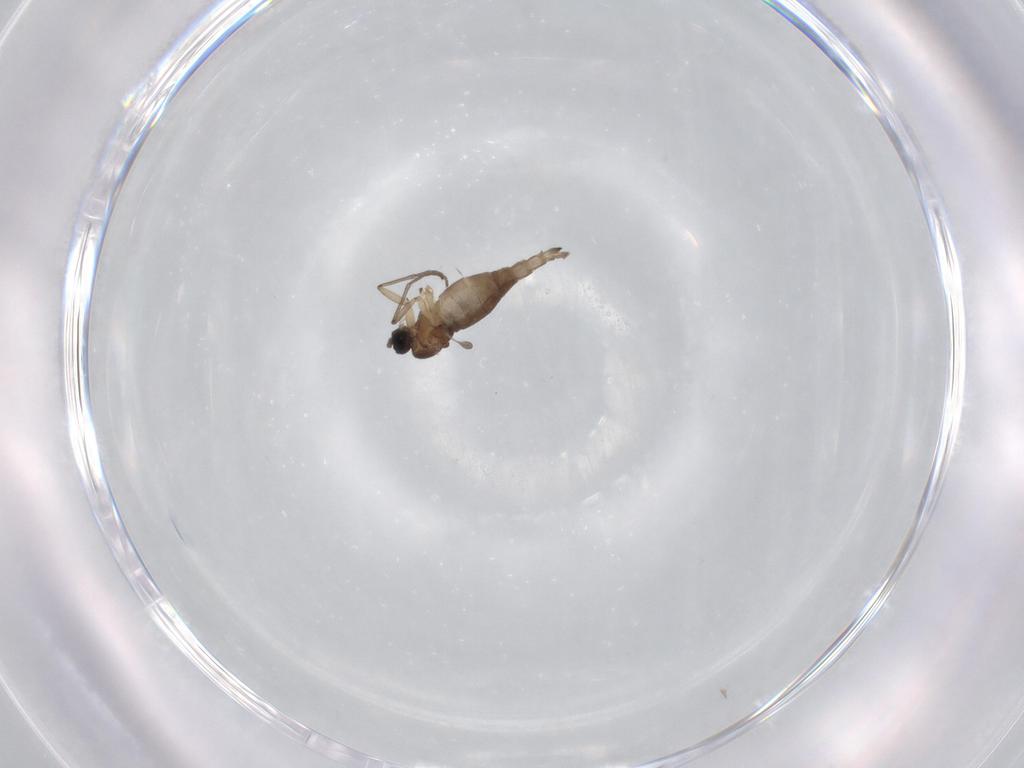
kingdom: Animalia
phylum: Arthropoda
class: Insecta
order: Diptera
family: Sciaridae
